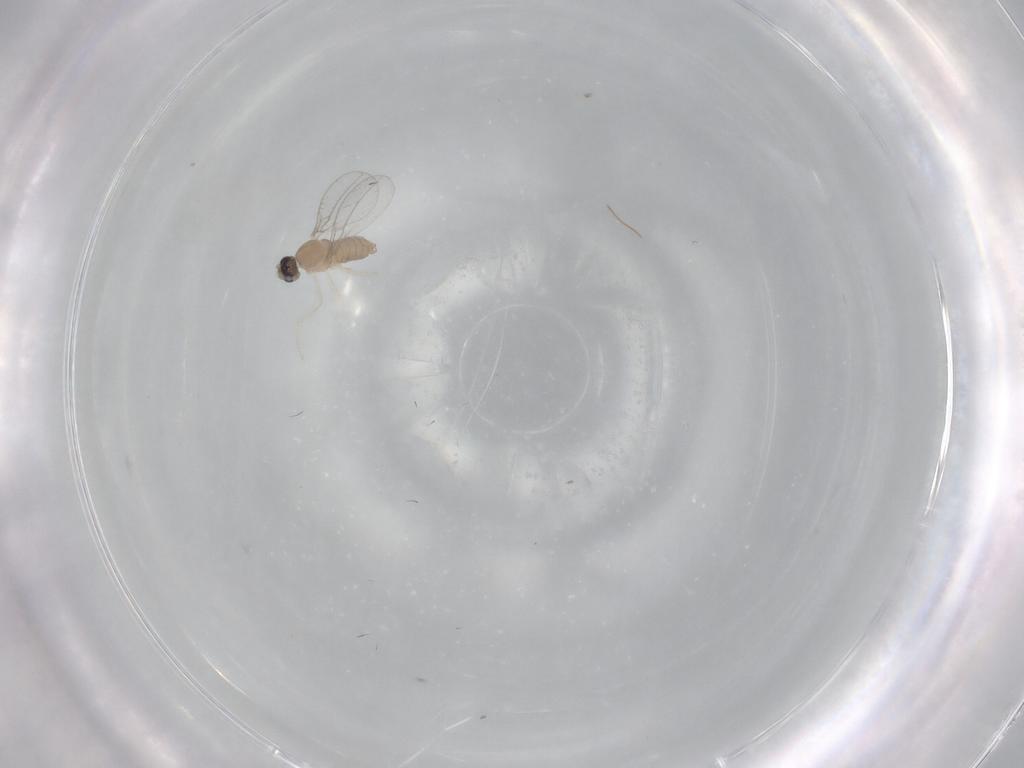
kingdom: Animalia
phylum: Arthropoda
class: Insecta
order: Diptera
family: Cecidomyiidae
